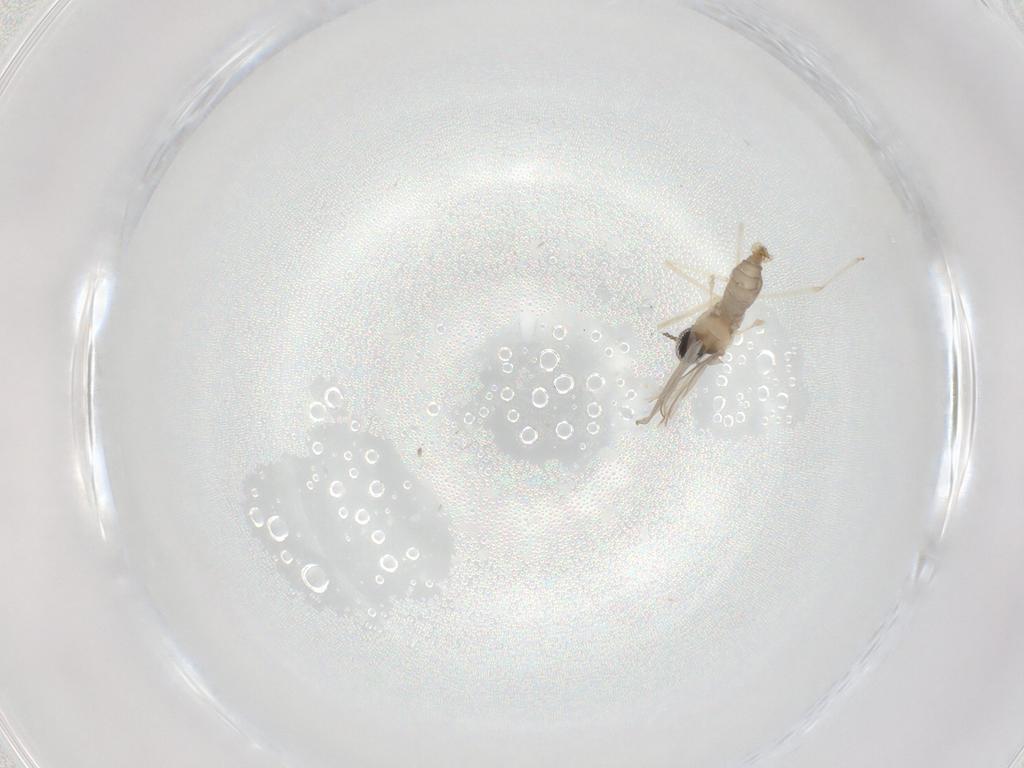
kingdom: Animalia
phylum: Arthropoda
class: Insecta
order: Diptera
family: Cecidomyiidae
